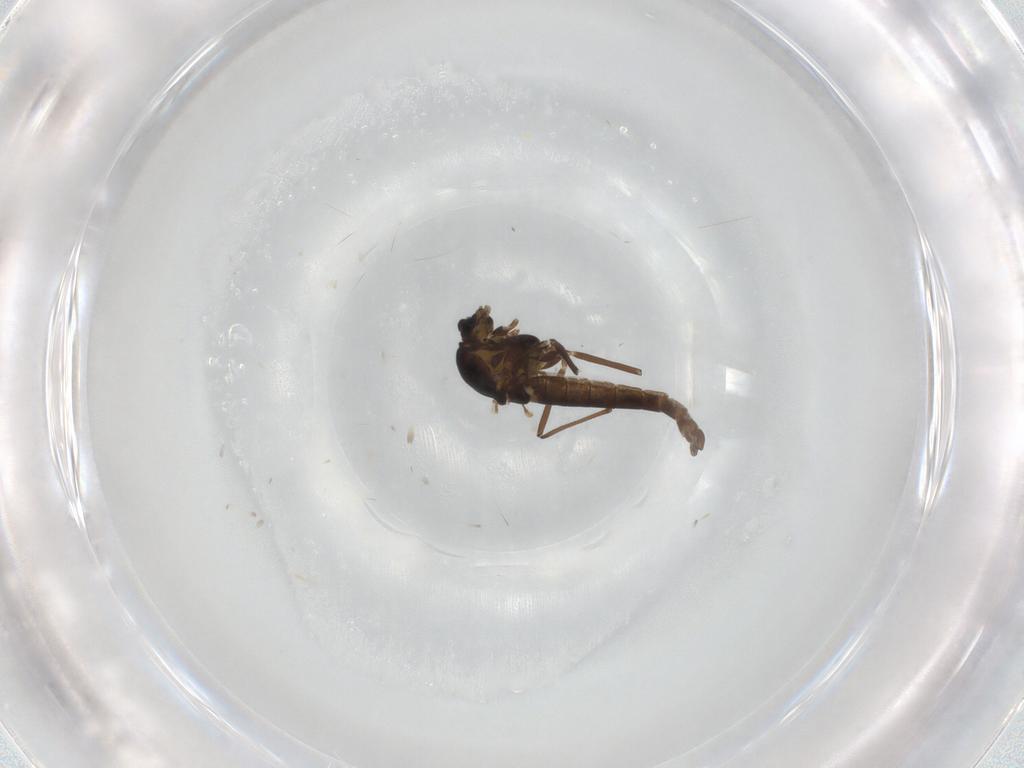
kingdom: Animalia
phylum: Arthropoda
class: Insecta
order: Diptera
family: Chironomidae
